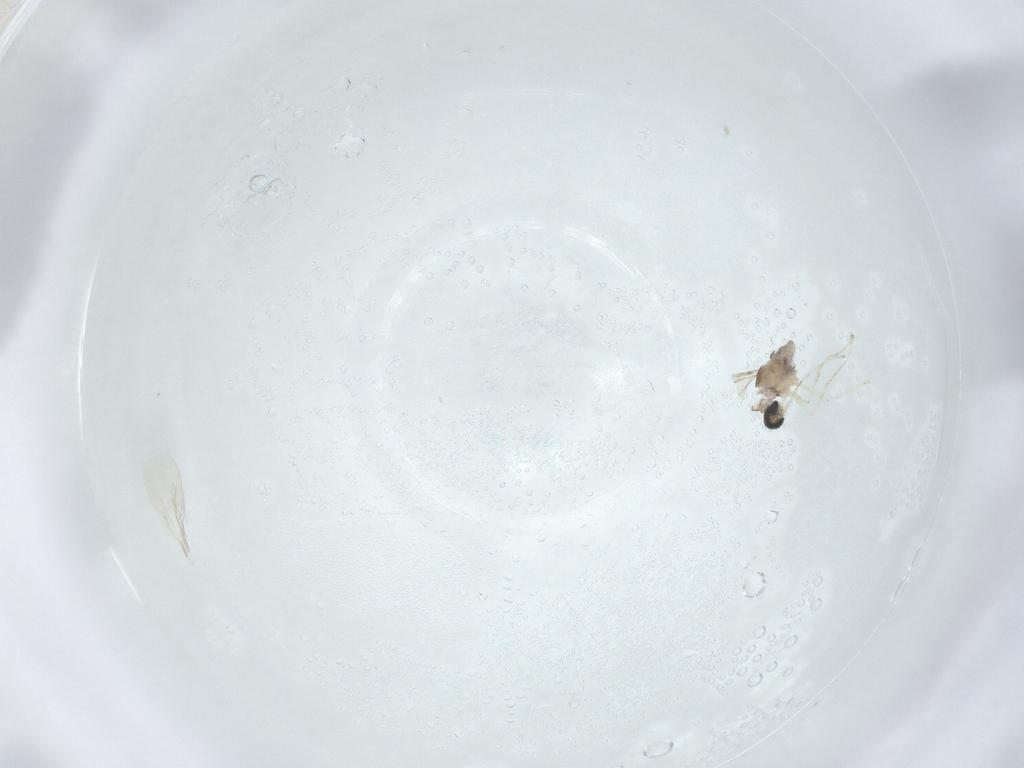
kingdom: Animalia
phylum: Arthropoda
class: Insecta
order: Diptera
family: Cecidomyiidae
